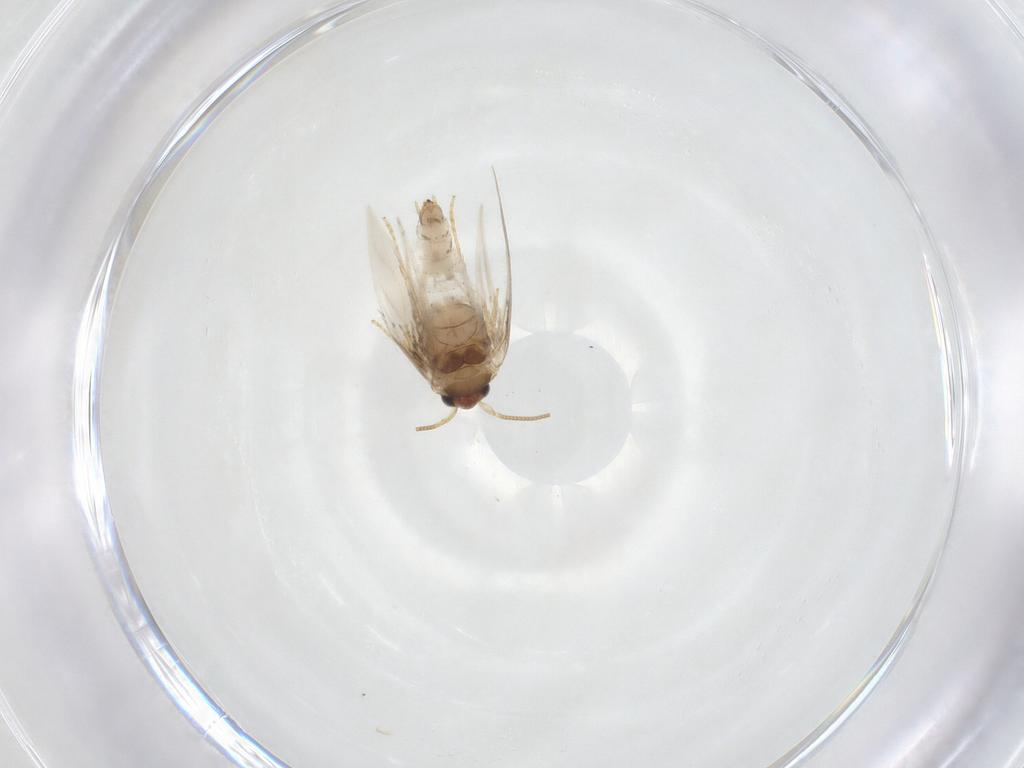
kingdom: Animalia
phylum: Arthropoda
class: Insecta
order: Lepidoptera
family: Nepticulidae
